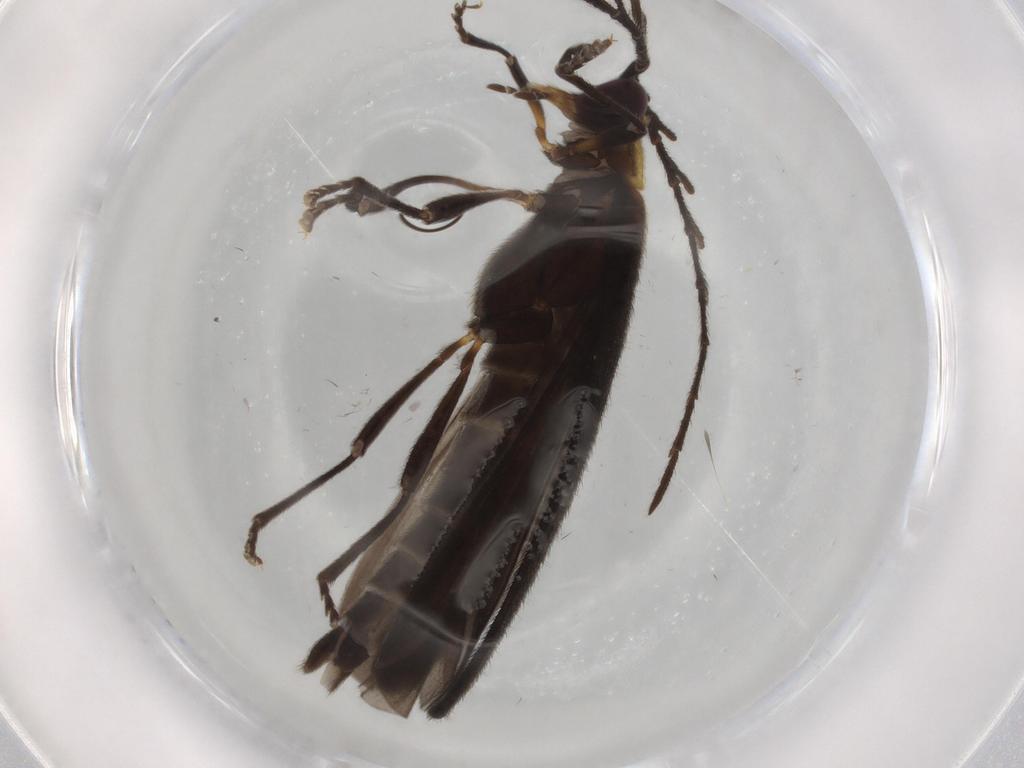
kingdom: Animalia
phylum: Arthropoda
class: Insecta
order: Coleoptera
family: Lycidae
